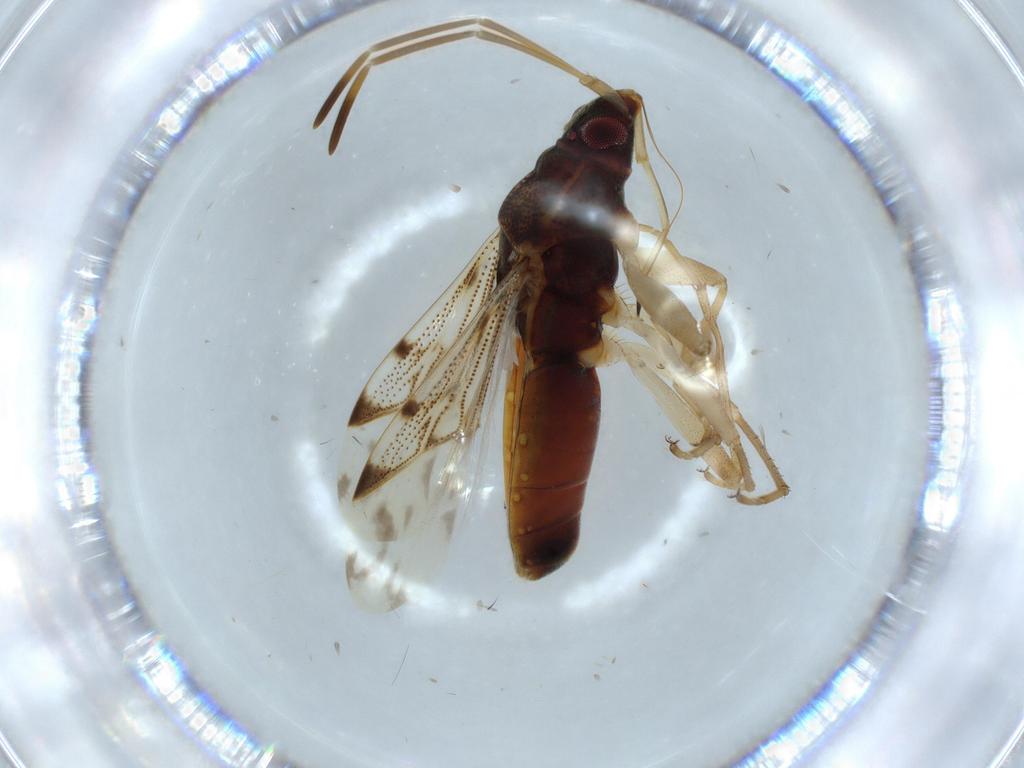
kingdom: Animalia
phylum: Arthropoda
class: Insecta
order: Hemiptera
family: Rhyparochromidae
